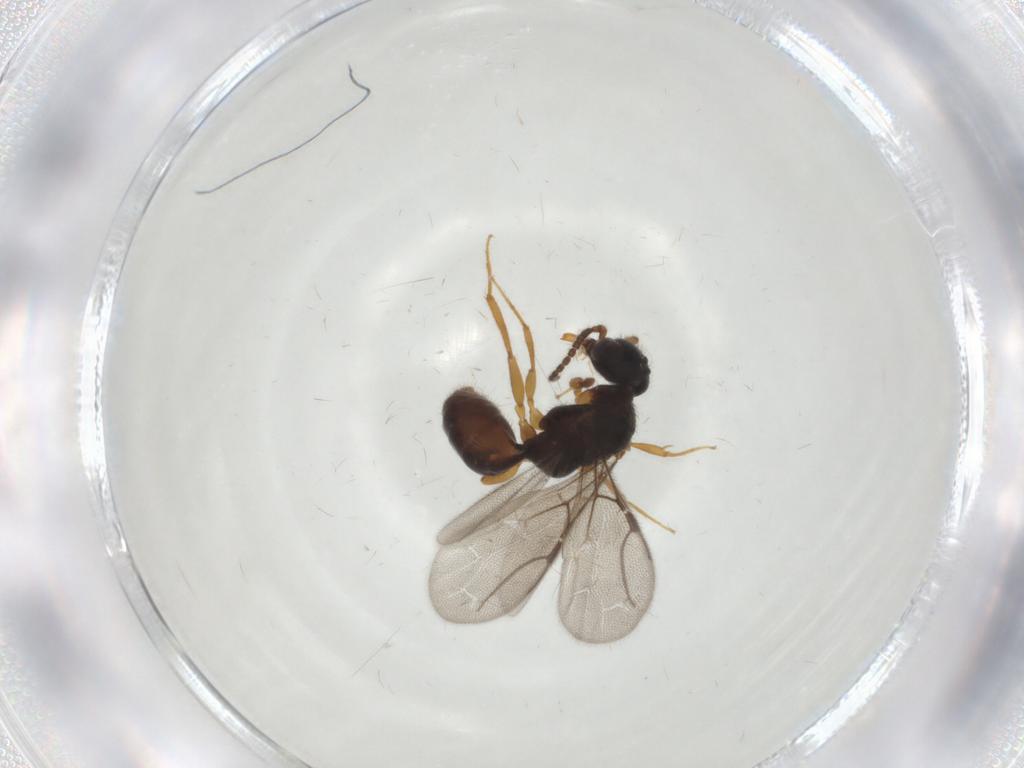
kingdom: Animalia
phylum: Arthropoda
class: Insecta
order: Hymenoptera
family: Bethylidae
